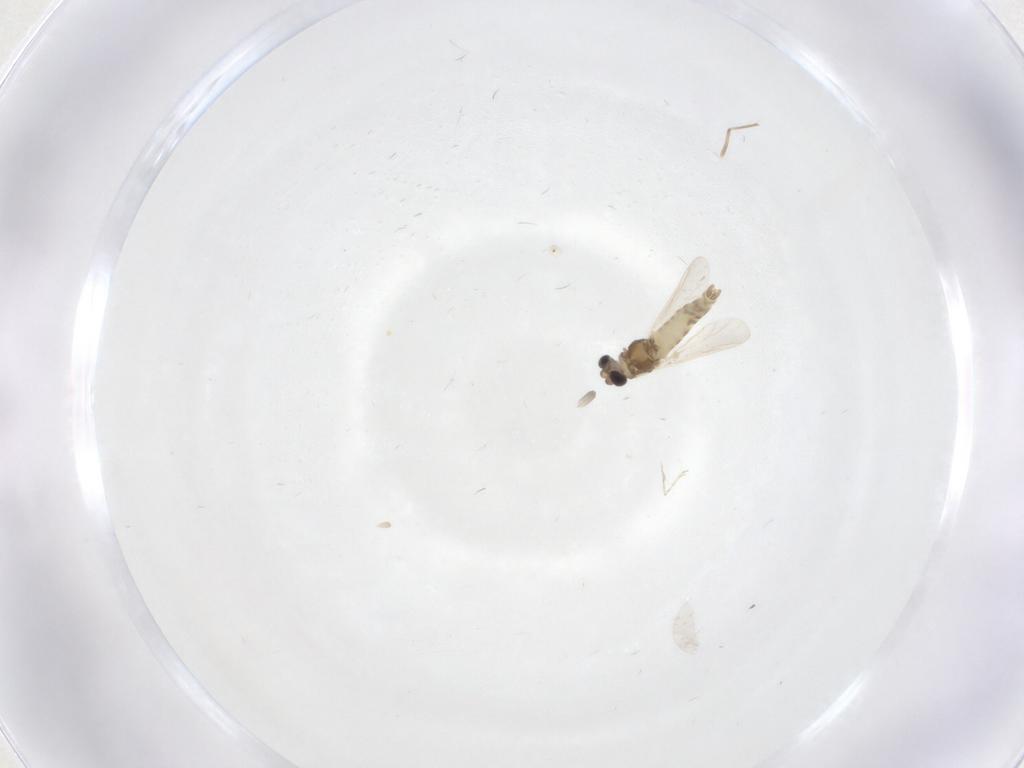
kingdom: Animalia
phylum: Arthropoda
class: Insecta
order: Diptera
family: Chironomidae
